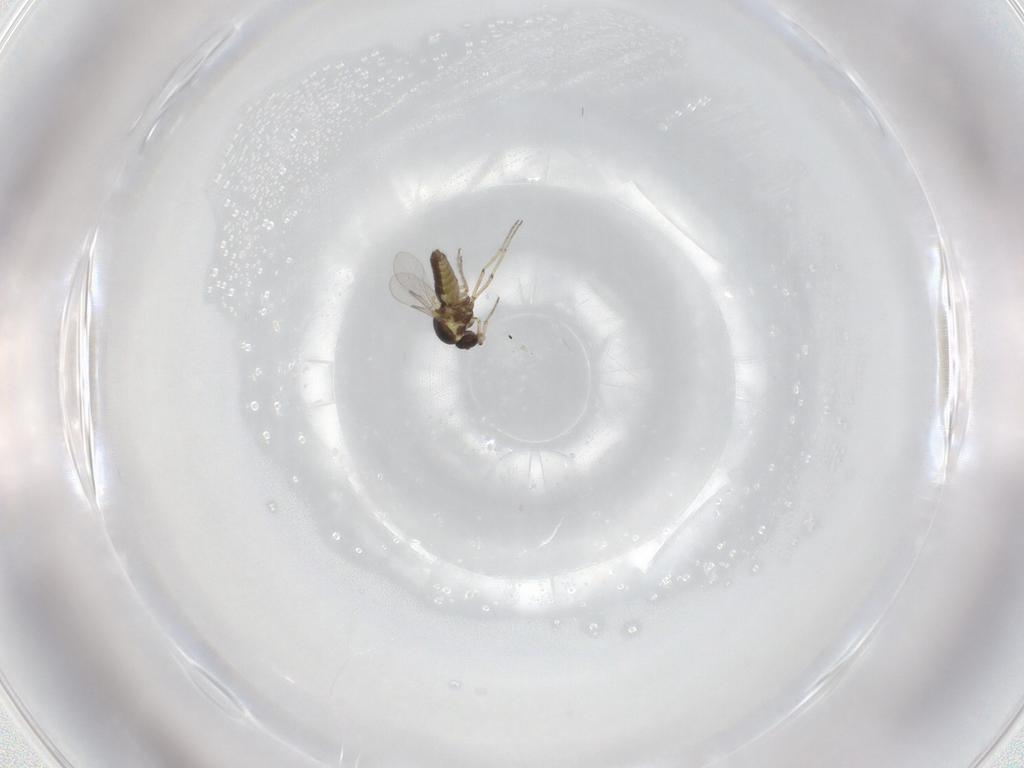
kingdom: Animalia
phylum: Arthropoda
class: Insecta
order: Diptera
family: Ceratopogonidae
